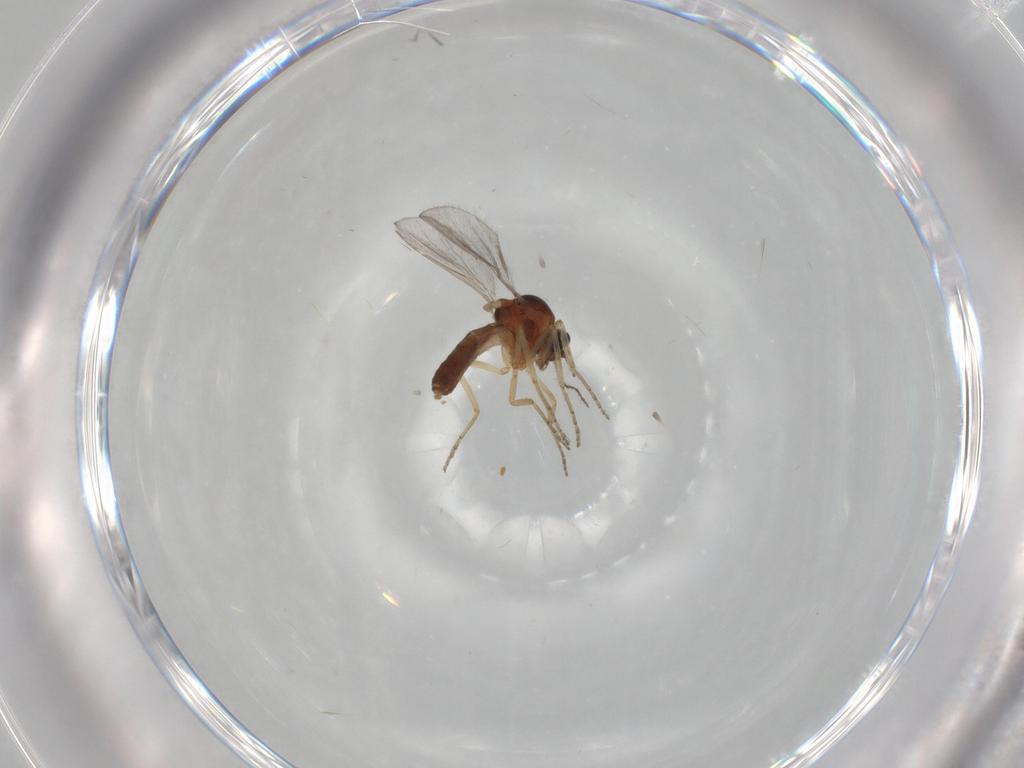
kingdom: Animalia
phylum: Arthropoda
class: Insecta
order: Diptera
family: Ceratopogonidae
